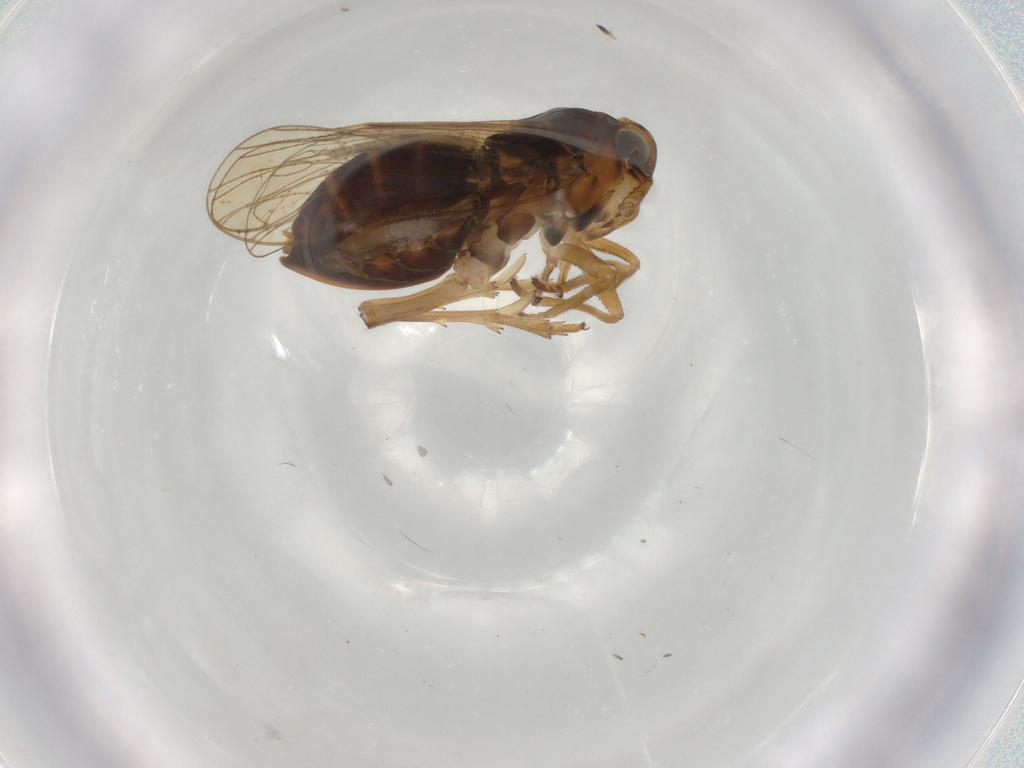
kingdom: Animalia
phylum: Arthropoda
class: Insecta
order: Hemiptera
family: Delphacidae
